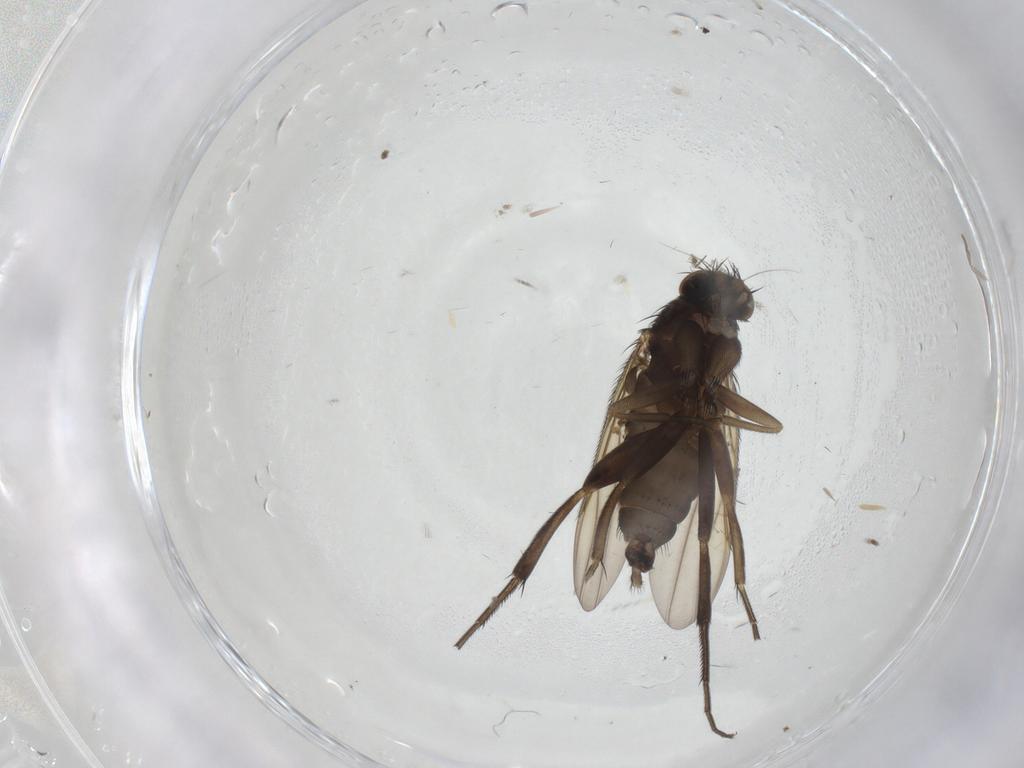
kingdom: Animalia
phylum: Arthropoda
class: Insecta
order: Diptera
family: Phoridae
